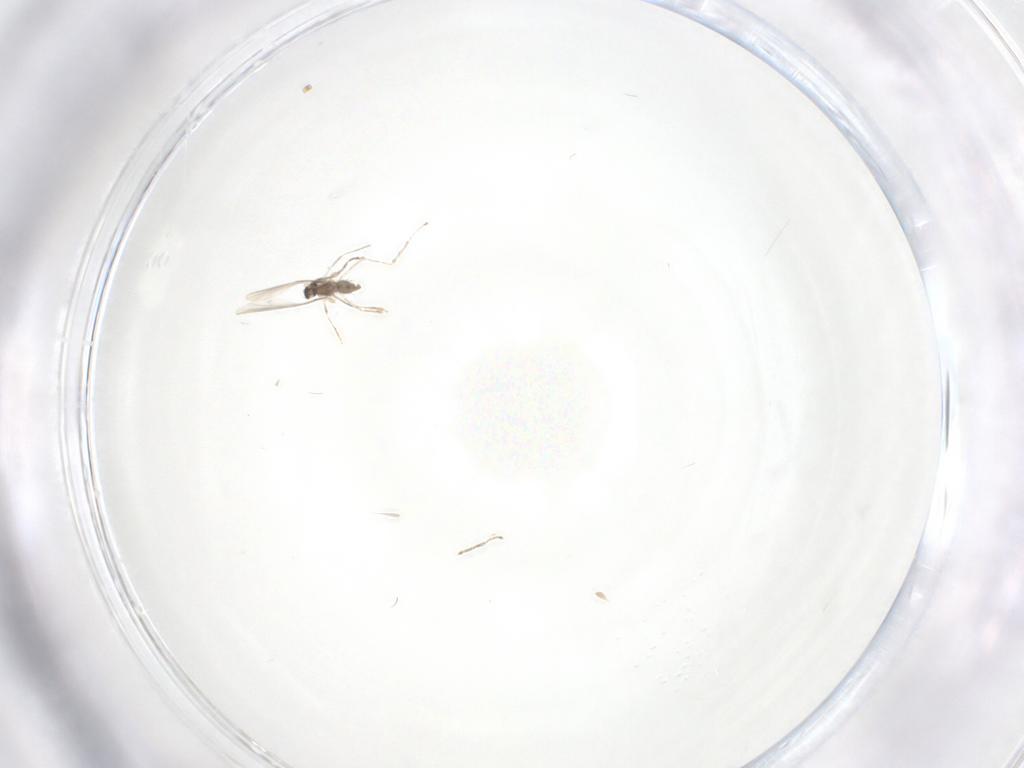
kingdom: Animalia
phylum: Arthropoda
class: Insecta
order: Diptera
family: Cecidomyiidae
